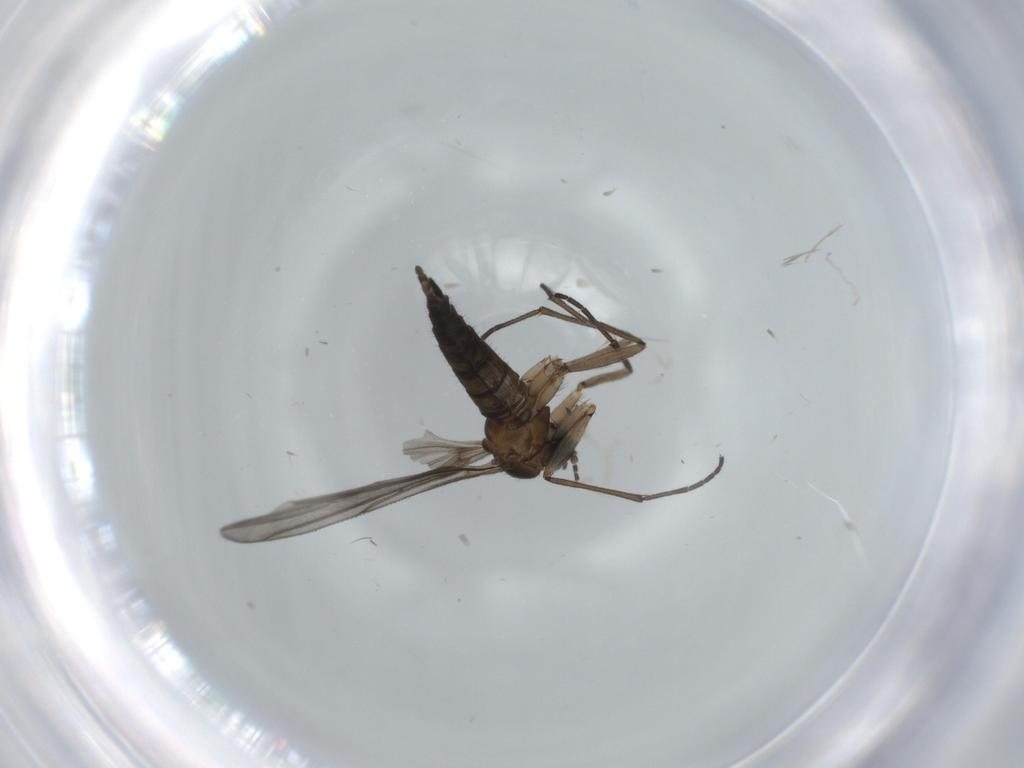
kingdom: Animalia
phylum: Arthropoda
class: Insecta
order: Diptera
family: Sciaridae
